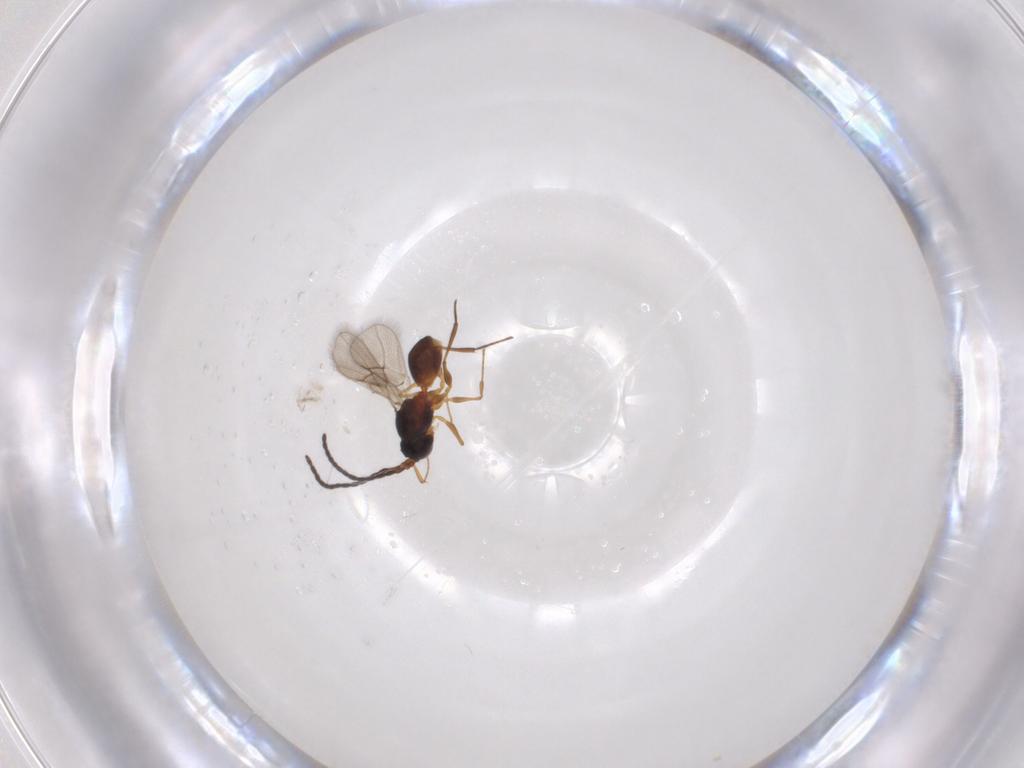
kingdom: Animalia
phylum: Arthropoda
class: Insecta
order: Hymenoptera
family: Figitidae
